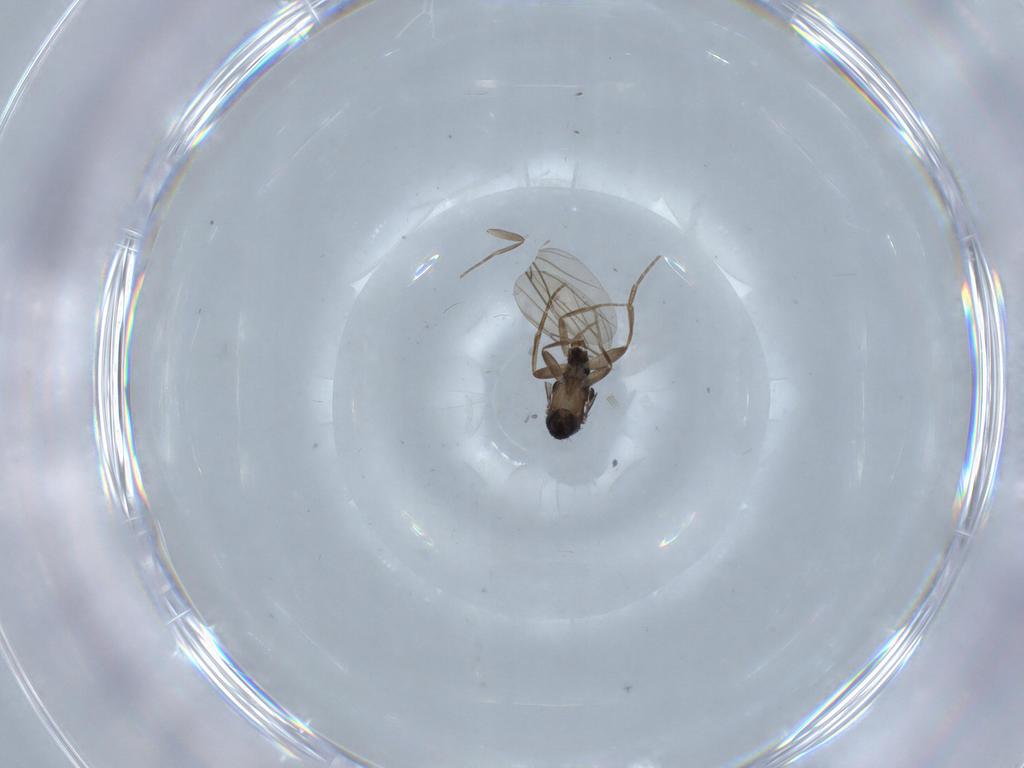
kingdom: Animalia
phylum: Arthropoda
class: Insecta
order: Diptera
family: Phoridae
